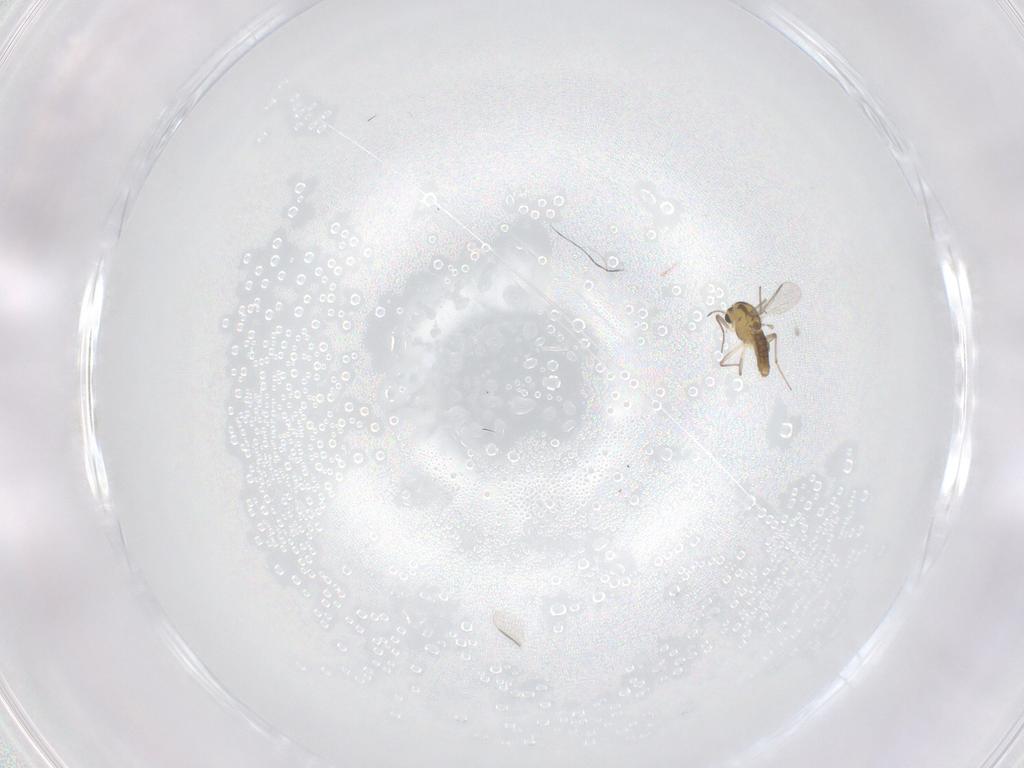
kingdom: Animalia
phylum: Arthropoda
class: Insecta
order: Diptera
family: Chironomidae
